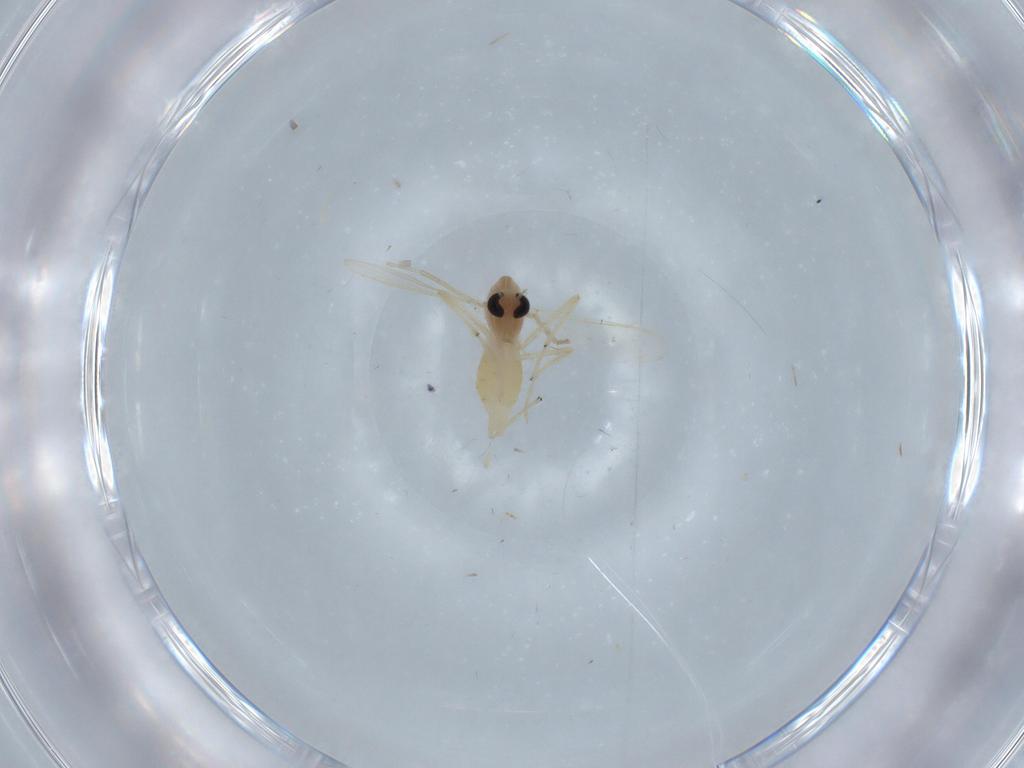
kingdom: Animalia
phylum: Arthropoda
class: Insecta
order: Diptera
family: Chironomidae
